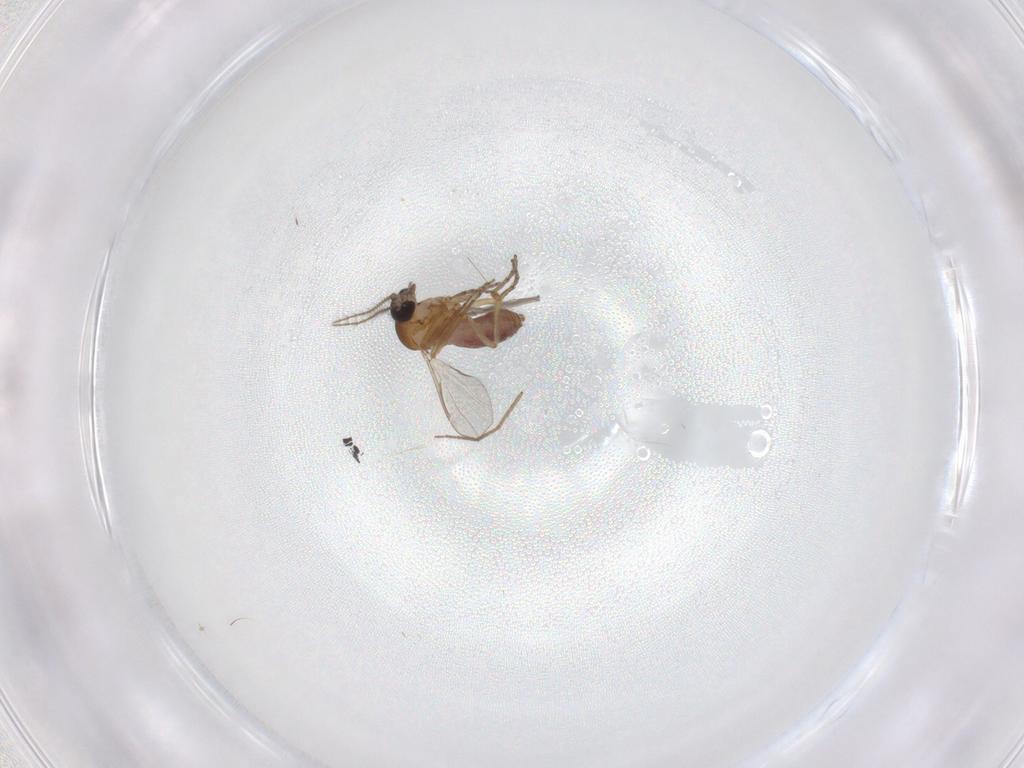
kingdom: Animalia
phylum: Arthropoda
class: Insecta
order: Diptera
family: Ceratopogonidae
